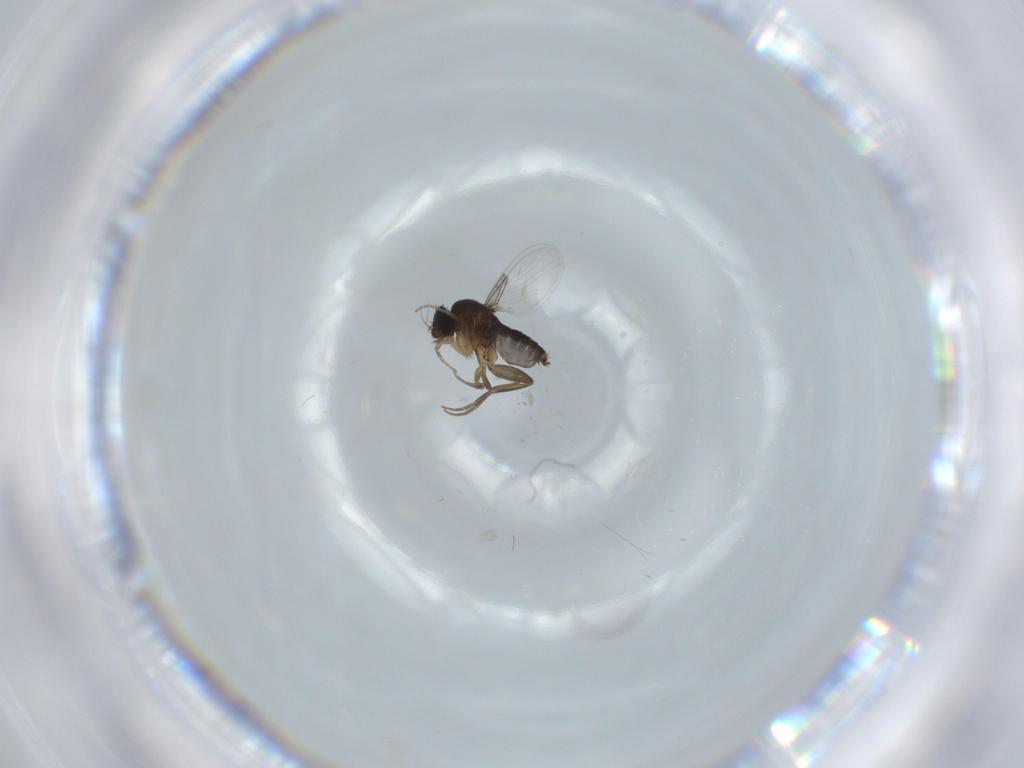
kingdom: Animalia
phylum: Arthropoda
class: Insecta
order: Diptera
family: Phoridae
